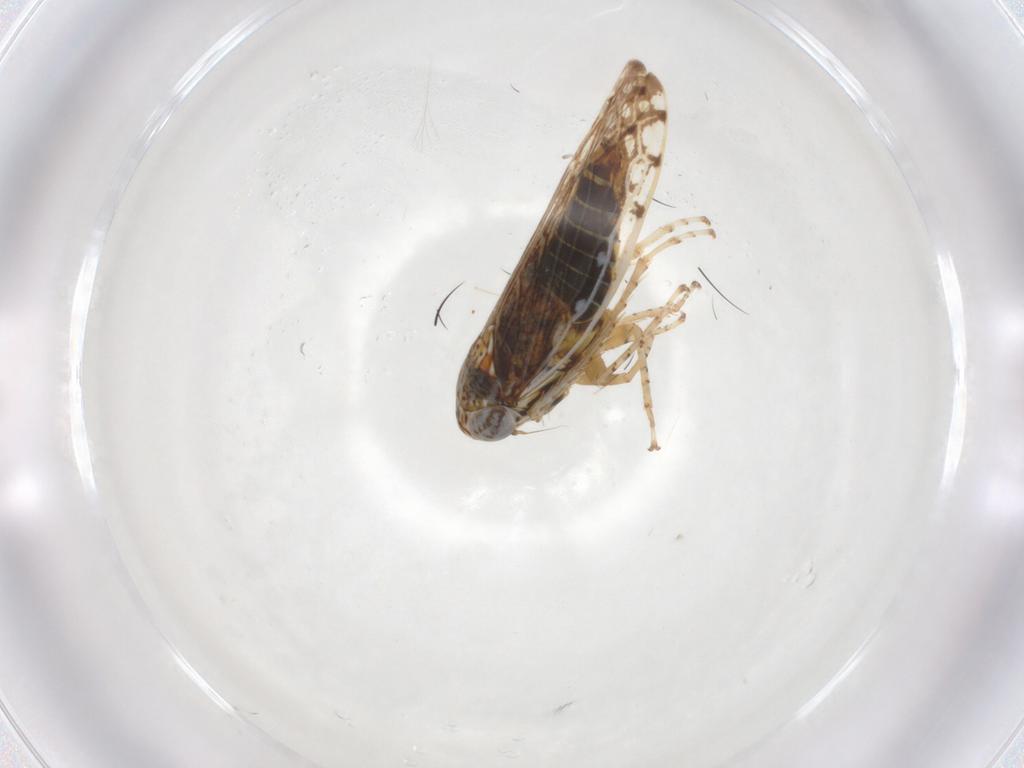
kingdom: Animalia
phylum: Arthropoda
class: Insecta
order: Hemiptera
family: Cicadellidae
